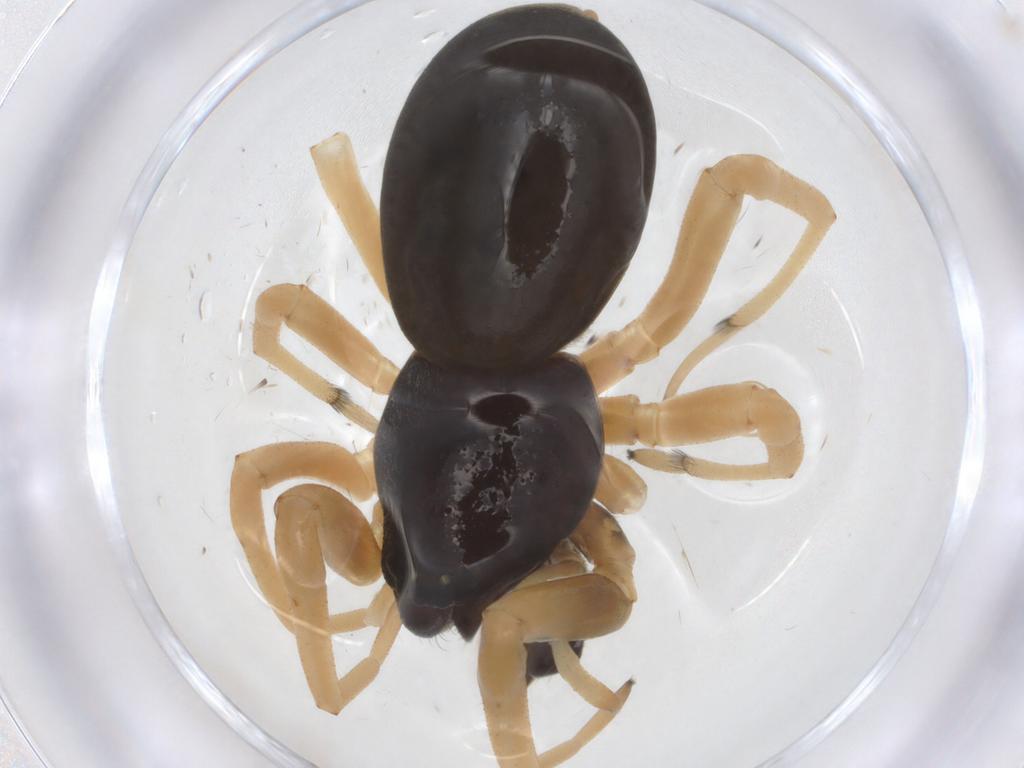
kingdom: Animalia
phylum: Arthropoda
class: Arachnida
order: Araneae
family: Trachelidae
